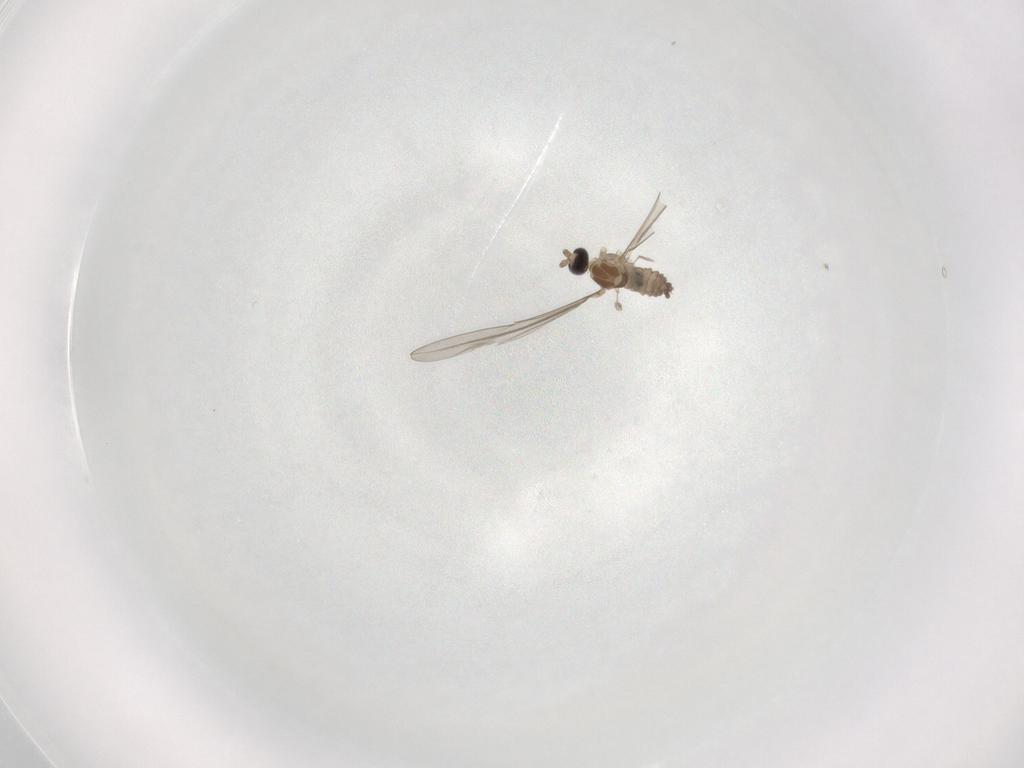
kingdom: Animalia
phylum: Arthropoda
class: Insecta
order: Diptera
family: Cecidomyiidae
